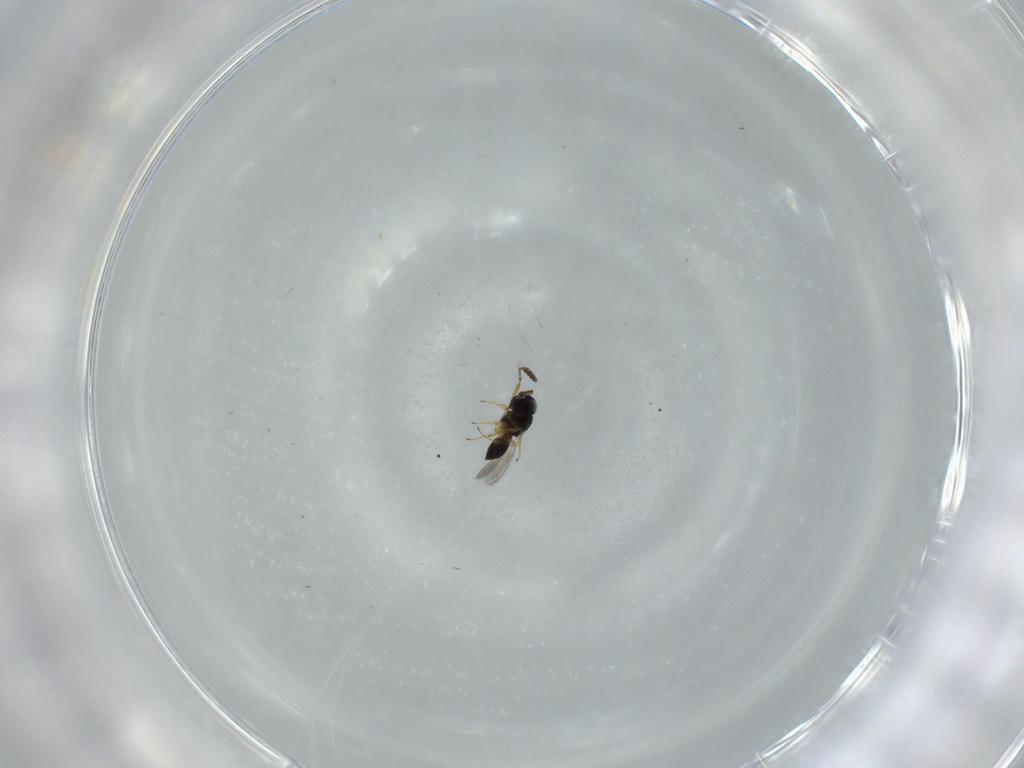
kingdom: Animalia
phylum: Arthropoda
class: Insecta
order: Hymenoptera
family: Scelionidae
